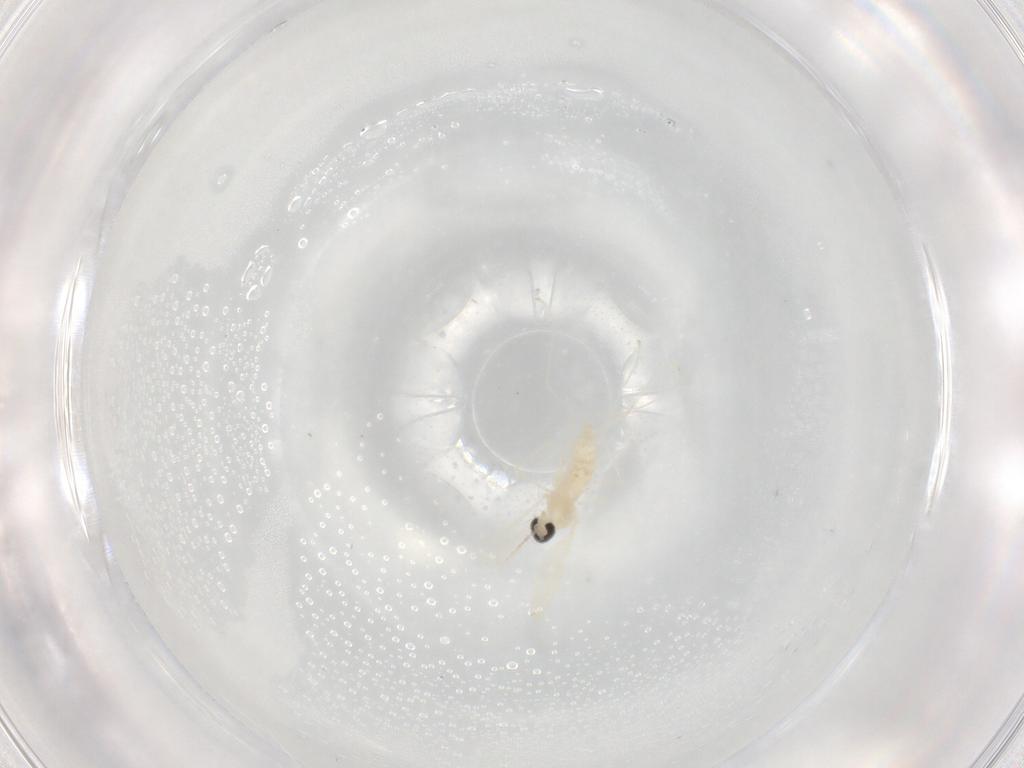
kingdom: Animalia
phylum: Arthropoda
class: Insecta
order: Diptera
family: Cecidomyiidae
